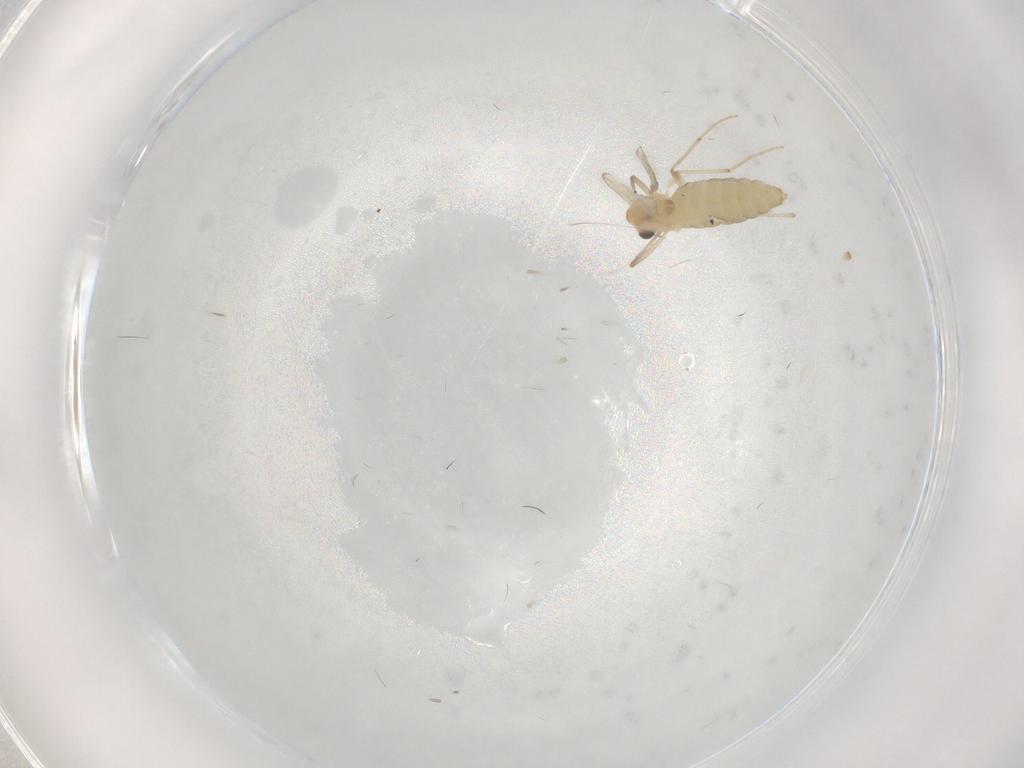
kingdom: Animalia
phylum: Arthropoda
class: Insecta
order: Diptera
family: Chironomidae
